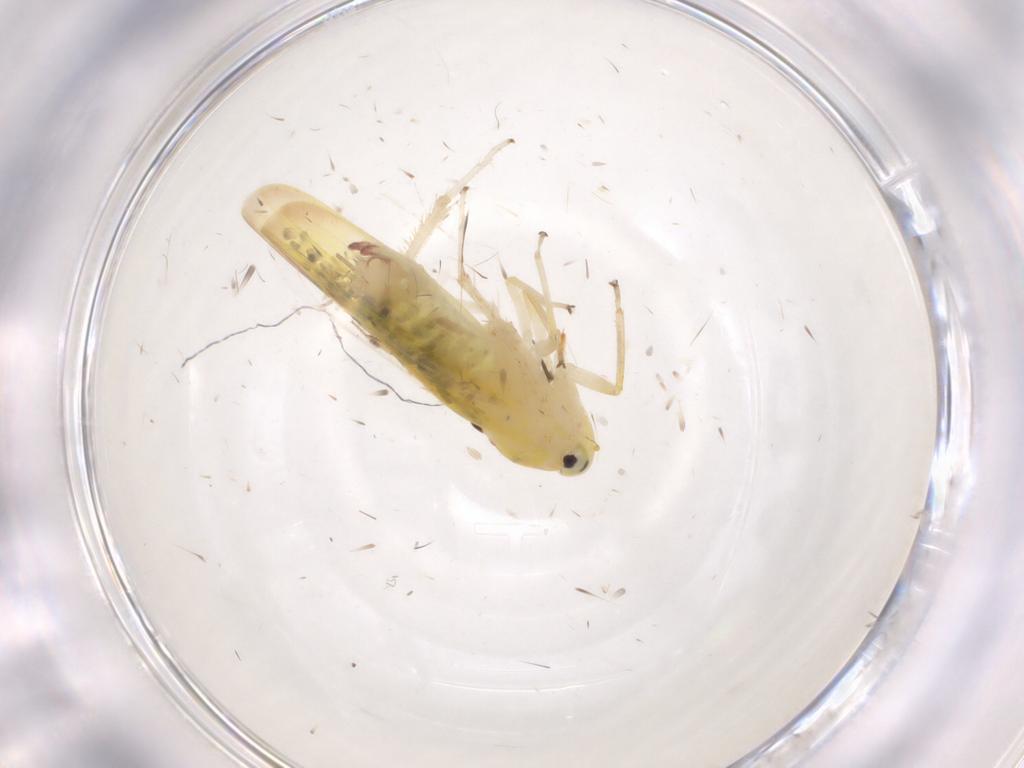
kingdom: Animalia
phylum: Arthropoda
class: Insecta
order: Hemiptera
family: Cicadellidae
